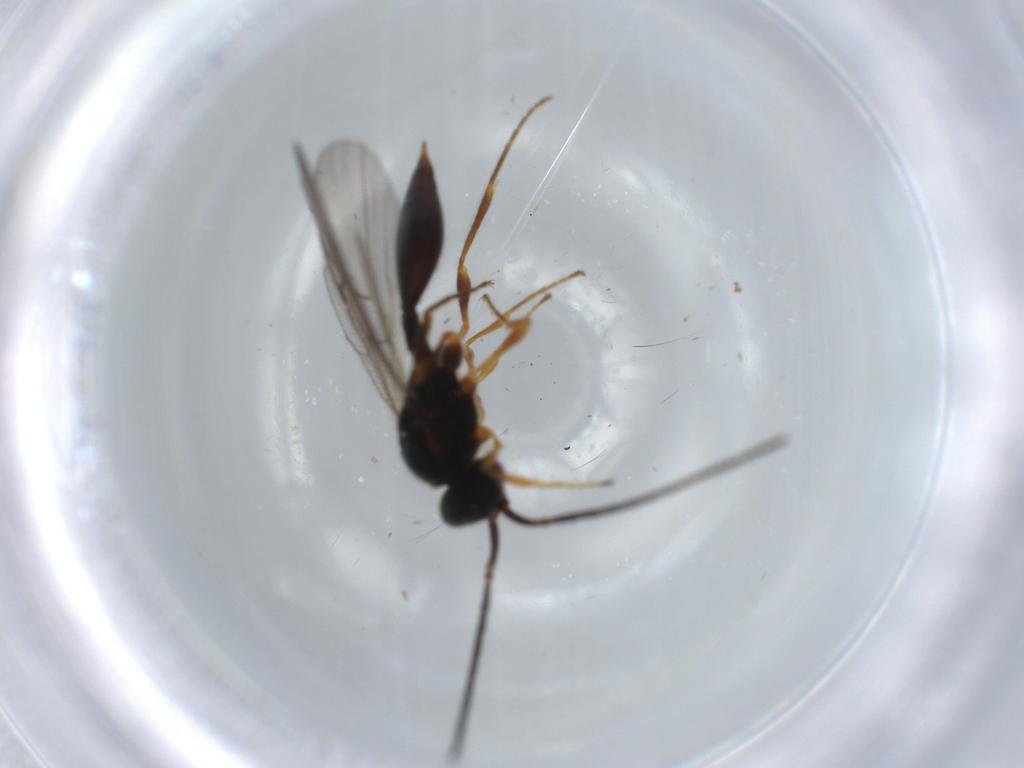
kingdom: Animalia
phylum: Arthropoda
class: Insecta
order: Hymenoptera
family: Diapriidae
